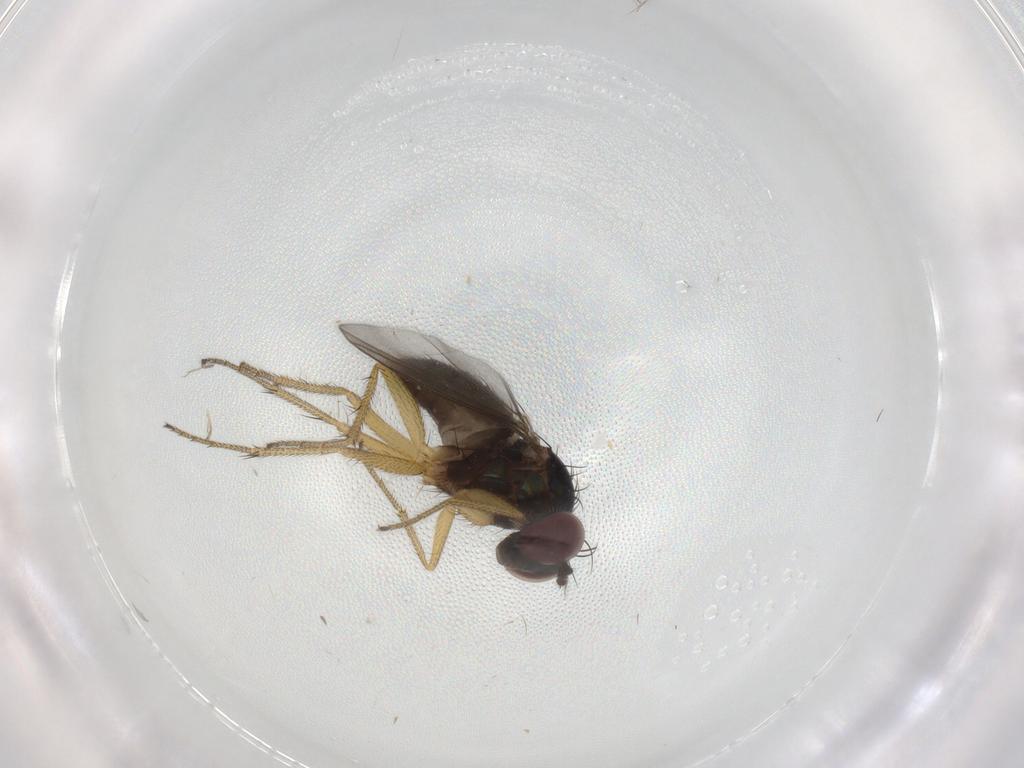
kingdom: Animalia
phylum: Arthropoda
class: Insecta
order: Diptera
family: Dolichopodidae
